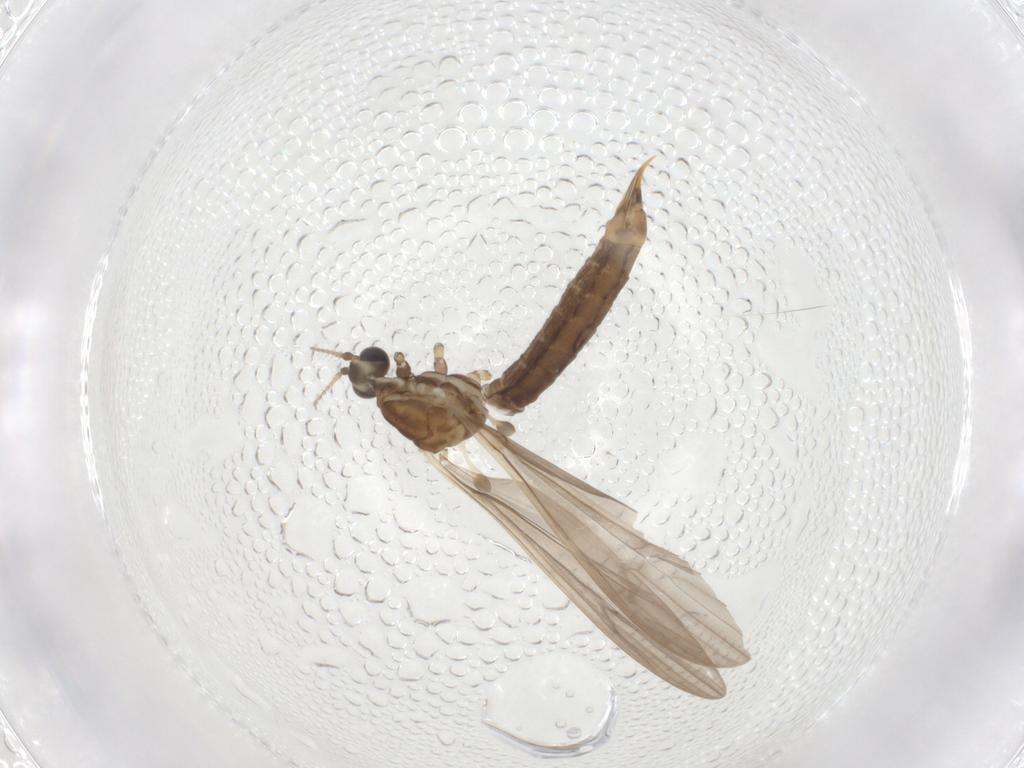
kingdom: Animalia
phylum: Arthropoda
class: Insecta
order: Diptera
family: Limoniidae
